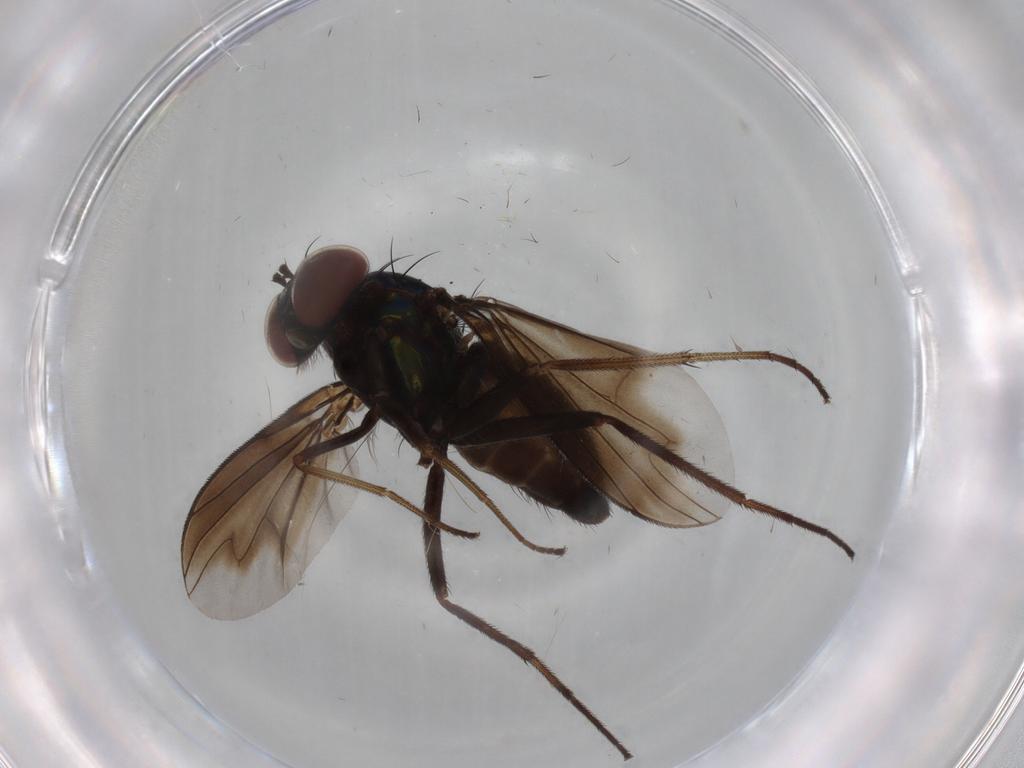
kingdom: Animalia
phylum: Arthropoda
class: Insecta
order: Diptera
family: Dolichopodidae
